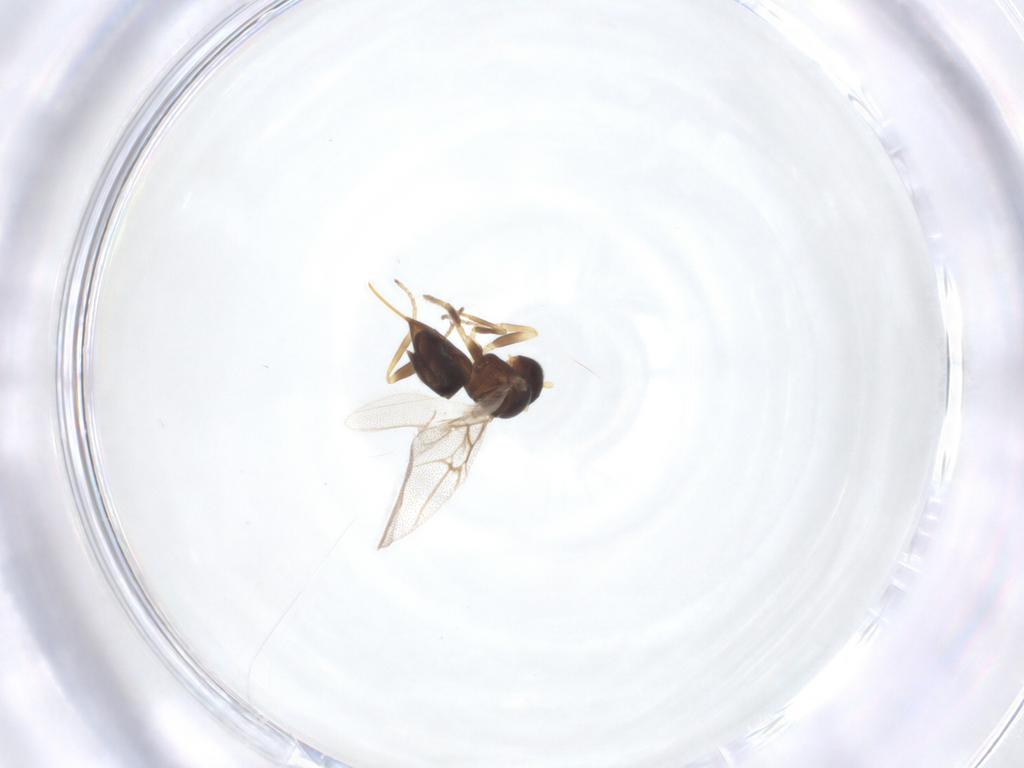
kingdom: Animalia
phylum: Arthropoda
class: Insecta
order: Hymenoptera
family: Cynipidae
